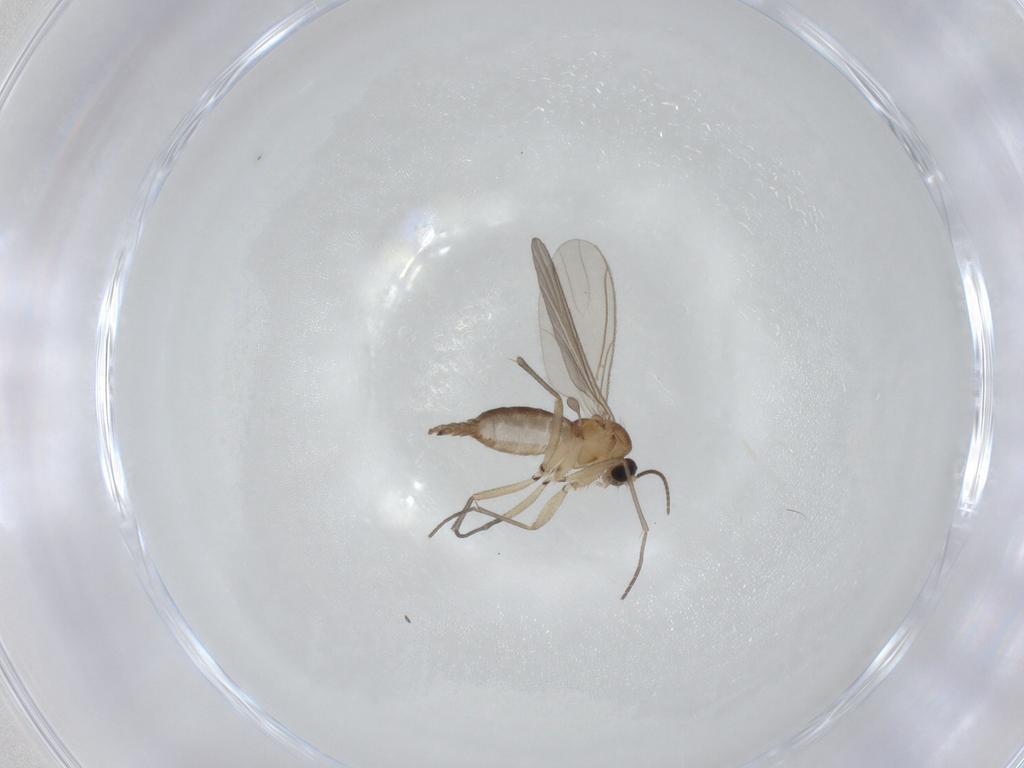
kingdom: Animalia
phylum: Arthropoda
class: Insecta
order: Diptera
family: Sciaridae
